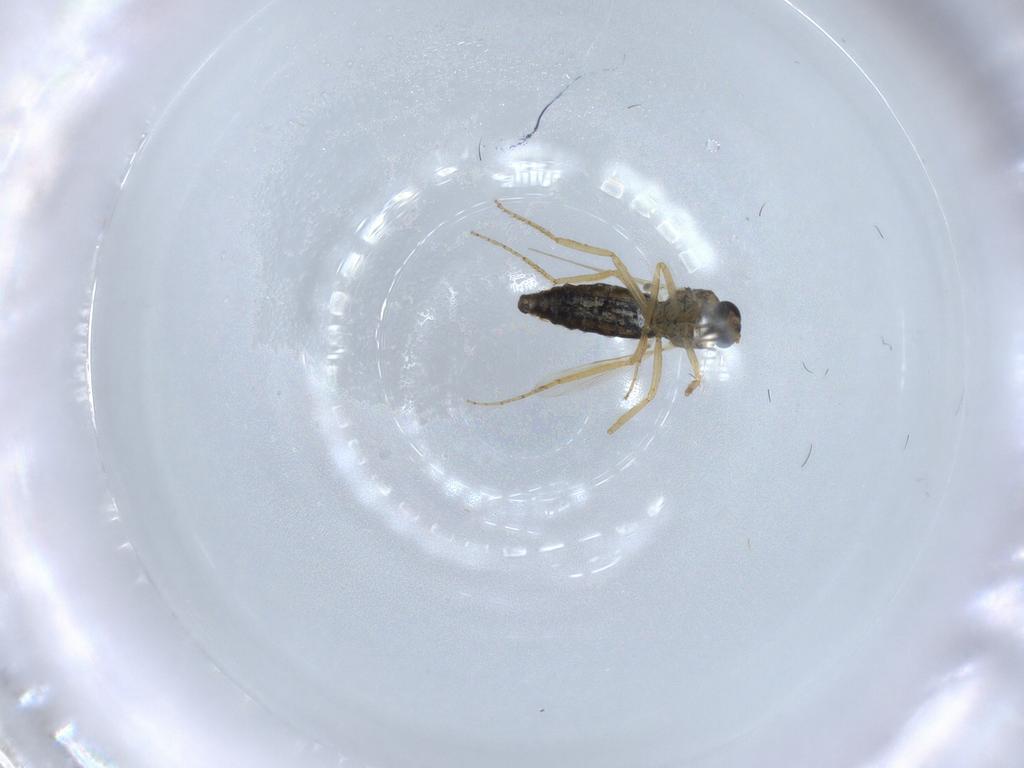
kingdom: Animalia
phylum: Arthropoda
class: Insecta
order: Diptera
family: Ceratopogonidae
